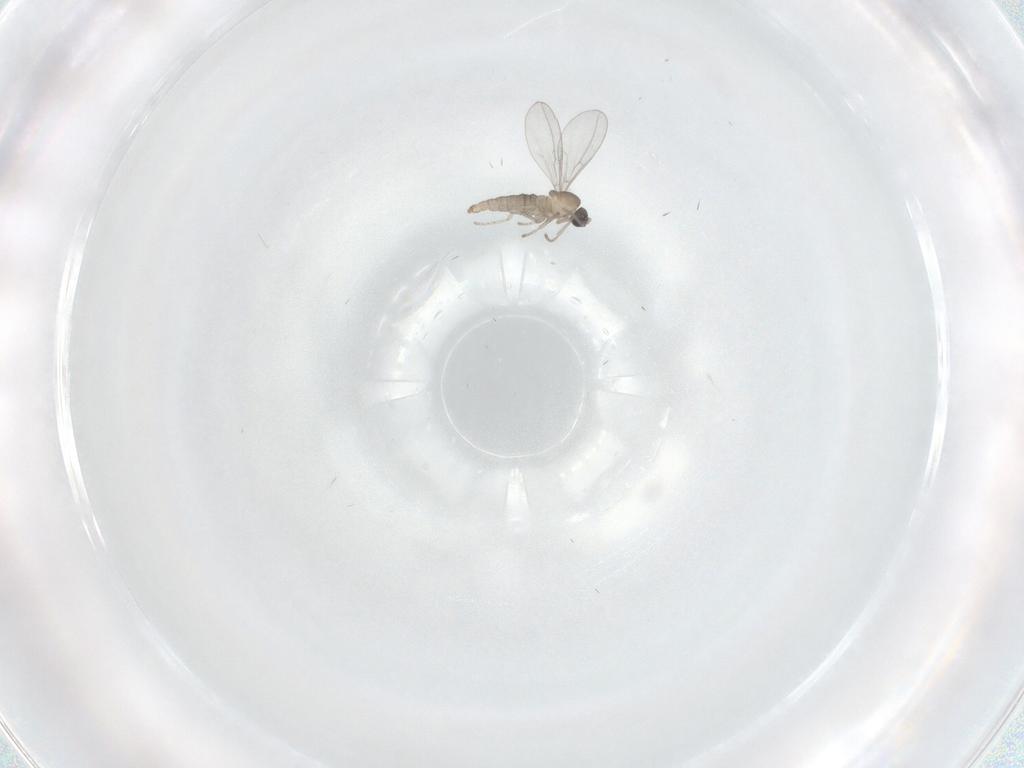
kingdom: Animalia
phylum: Arthropoda
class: Insecta
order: Diptera
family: Cecidomyiidae
